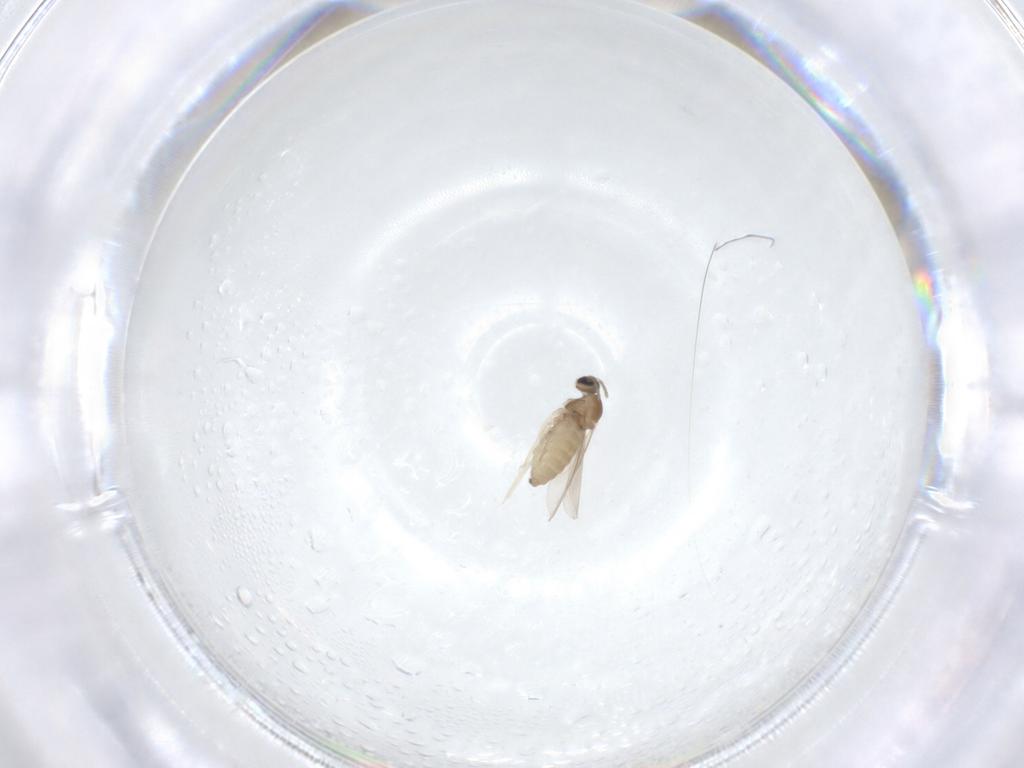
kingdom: Animalia
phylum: Arthropoda
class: Insecta
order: Diptera
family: Cecidomyiidae
